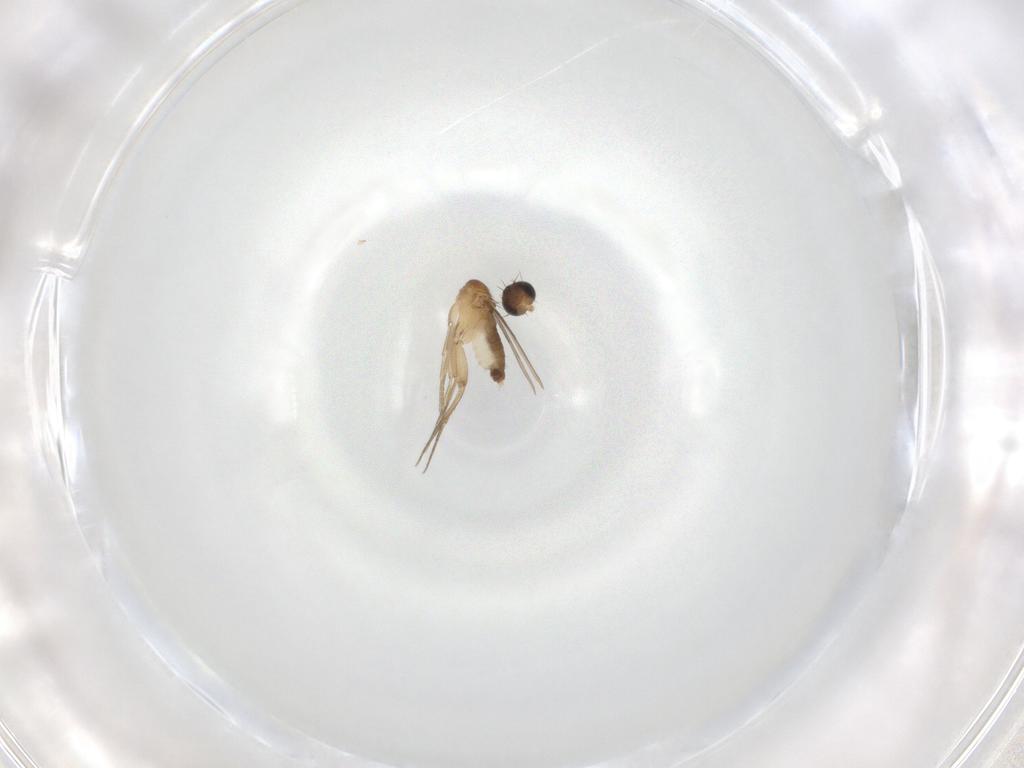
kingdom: Animalia
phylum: Arthropoda
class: Insecta
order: Diptera
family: Phoridae
